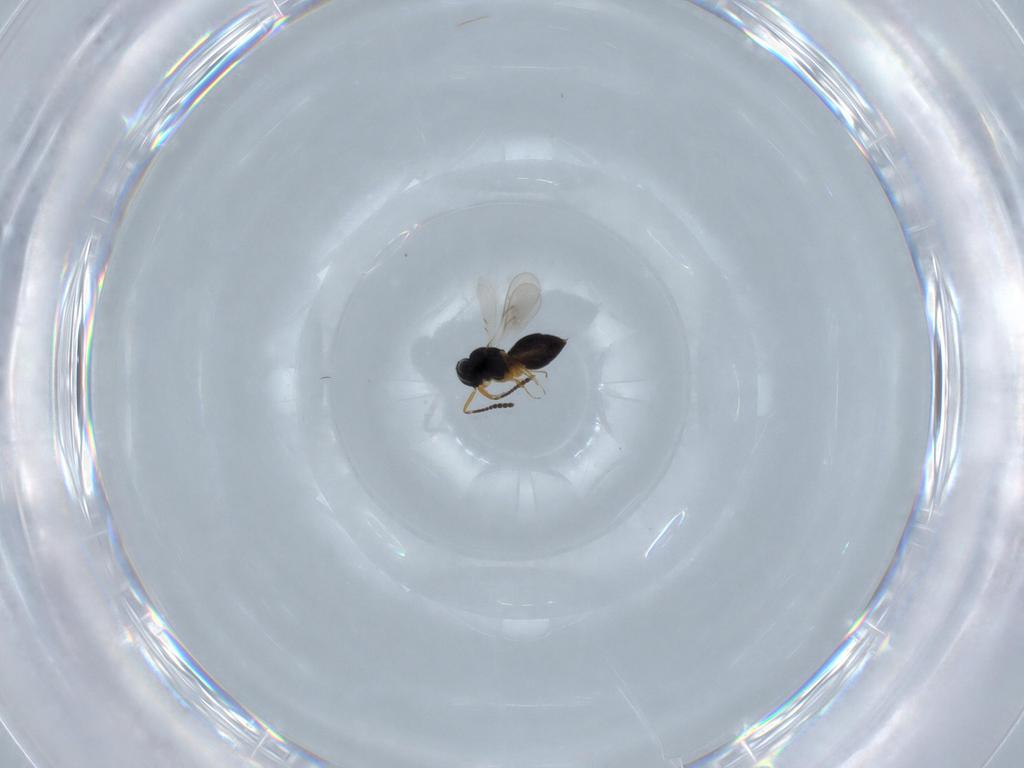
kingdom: Animalia
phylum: Arthropoda
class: Insecta
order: Hymenoptera
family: Scelionidae
